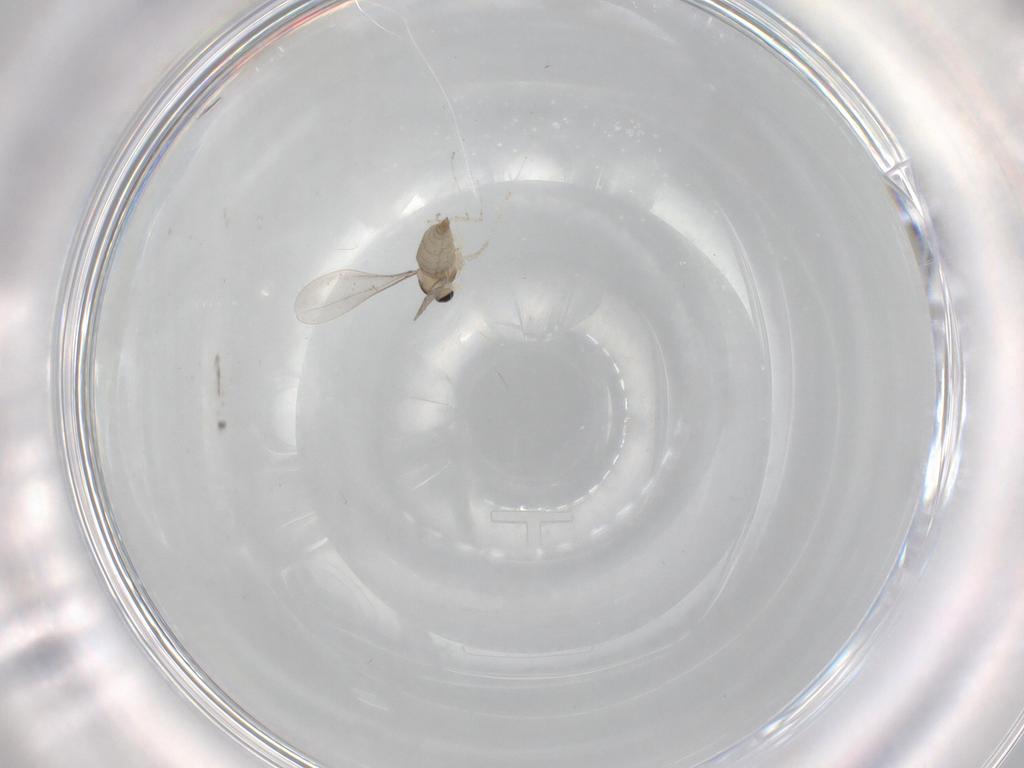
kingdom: Animalia
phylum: Arthropoda
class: Insecta
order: Diptera
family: Cecidomyiidae
